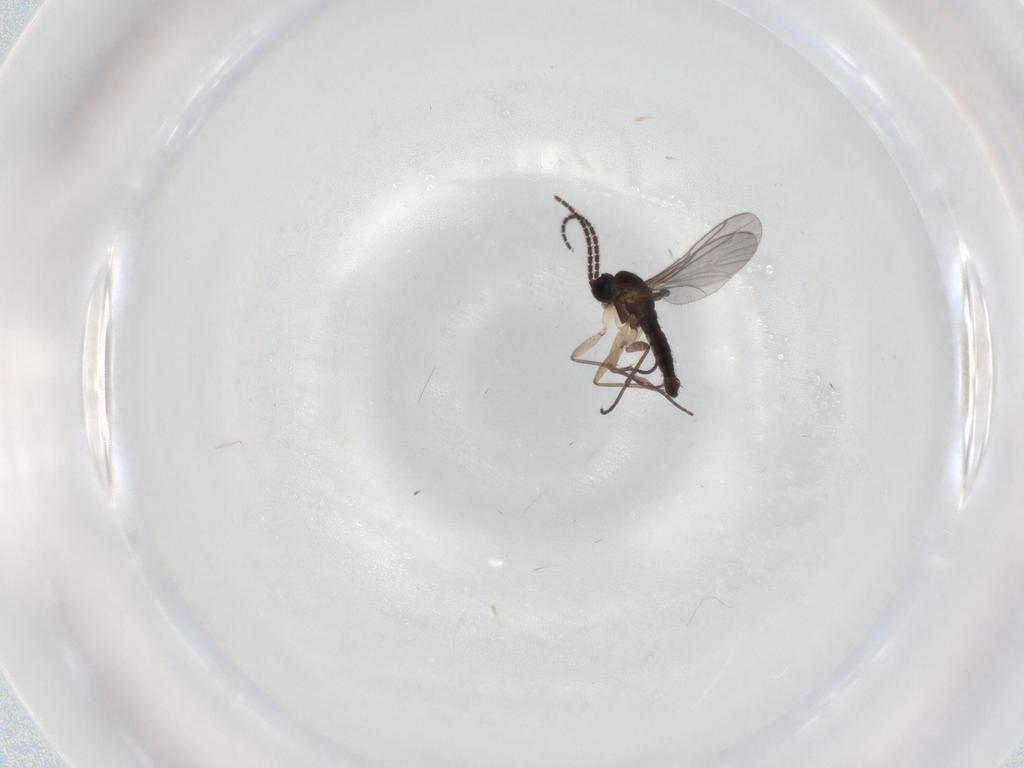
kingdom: Animalia
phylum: Arthropoda
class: Insecta
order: Diptera
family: Sciaridae
